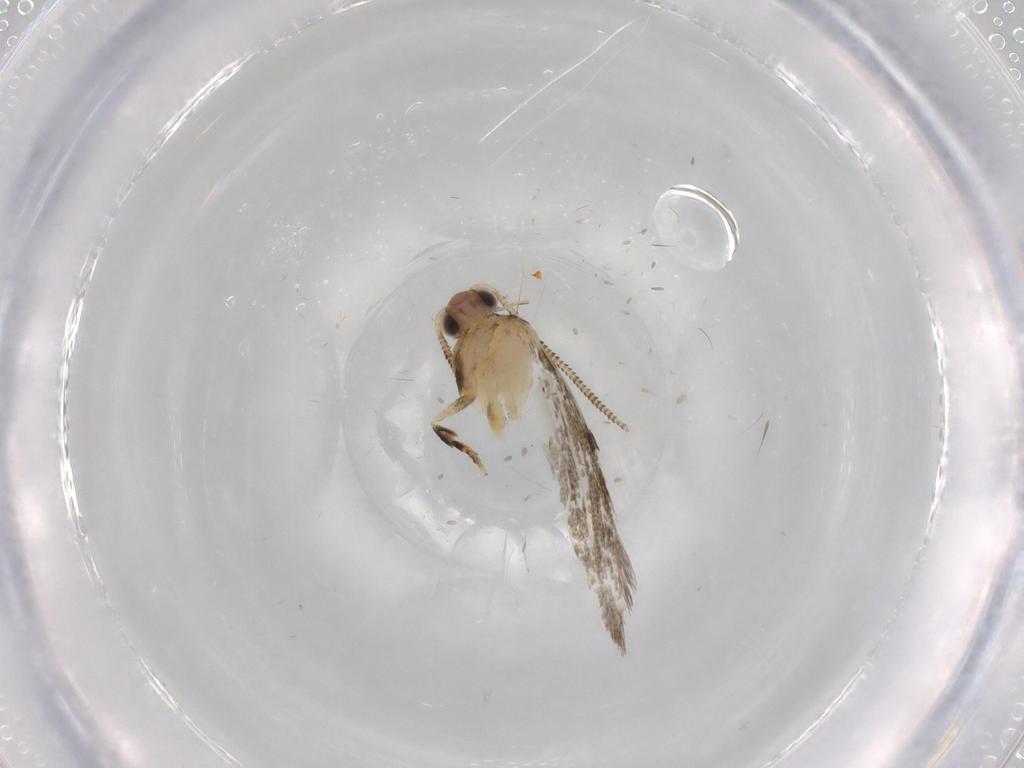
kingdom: Animalia
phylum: Arthropoda
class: Insecta
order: Lepidoptera
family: Tineidae
